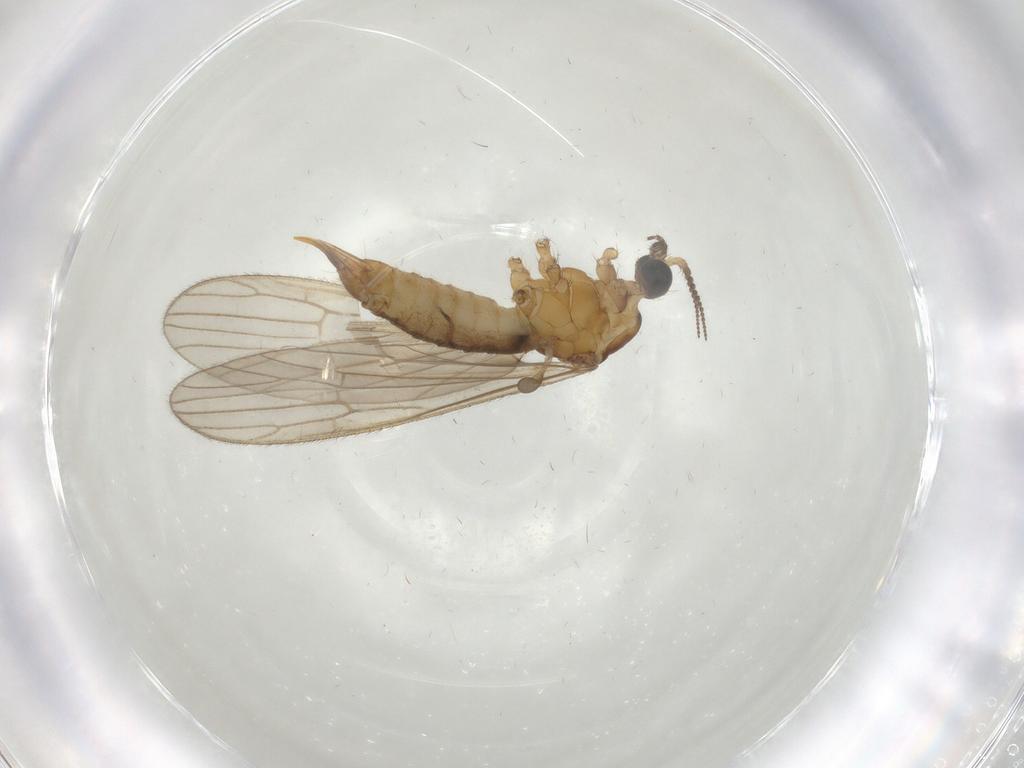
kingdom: Animalia
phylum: Arthropoda
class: Insecta
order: Diptera
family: Limoniidae
